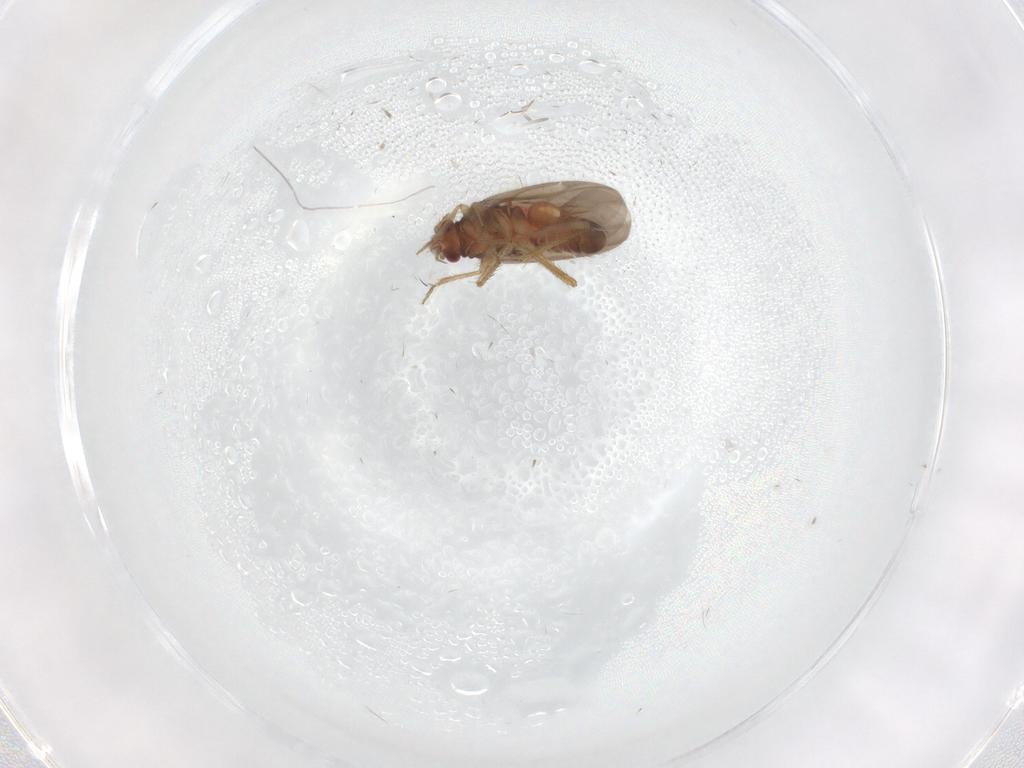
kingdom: Animalia
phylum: Arthropoda
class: Insecta
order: Hemiptera
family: Ceratocombidae
